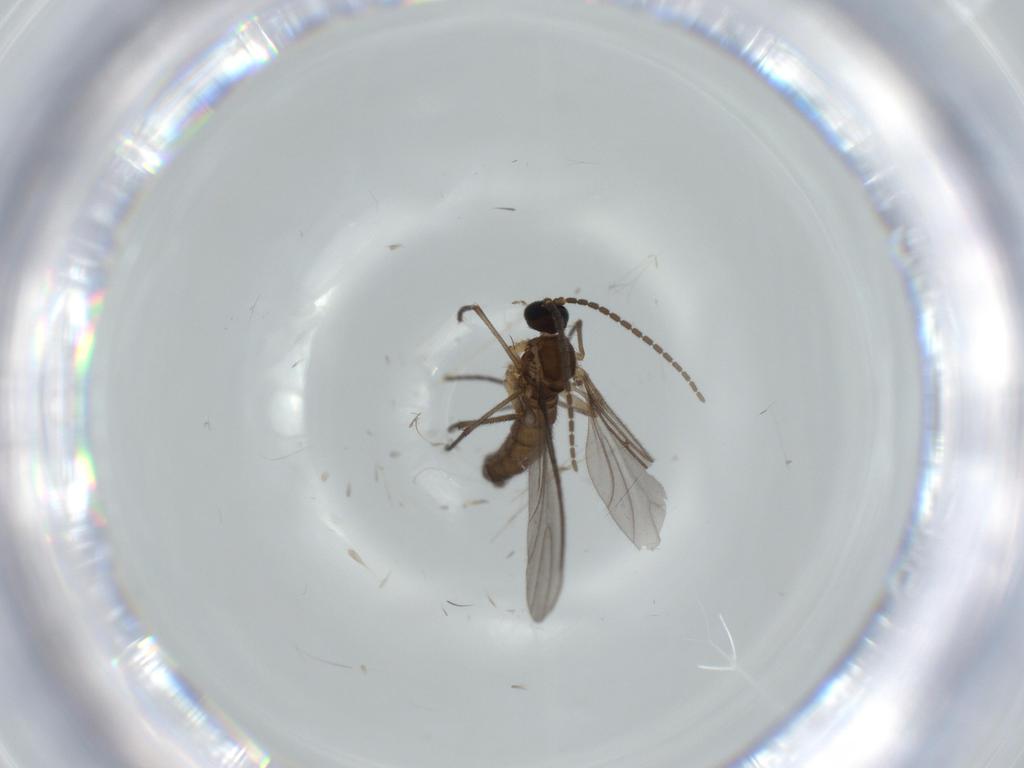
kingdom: Animalia
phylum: Arthropoda
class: Insecta
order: Diptera
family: Sciaridae
